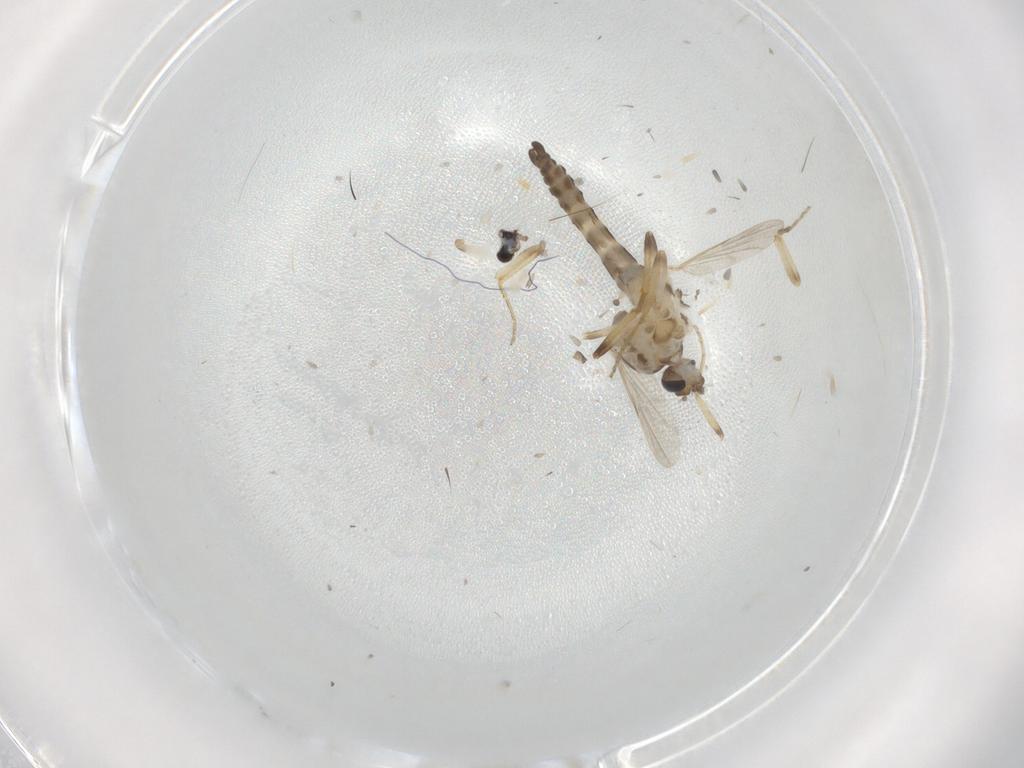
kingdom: Animalia
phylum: Arthropoda
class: Insecta
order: Diptera
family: Ceratopogonidae
